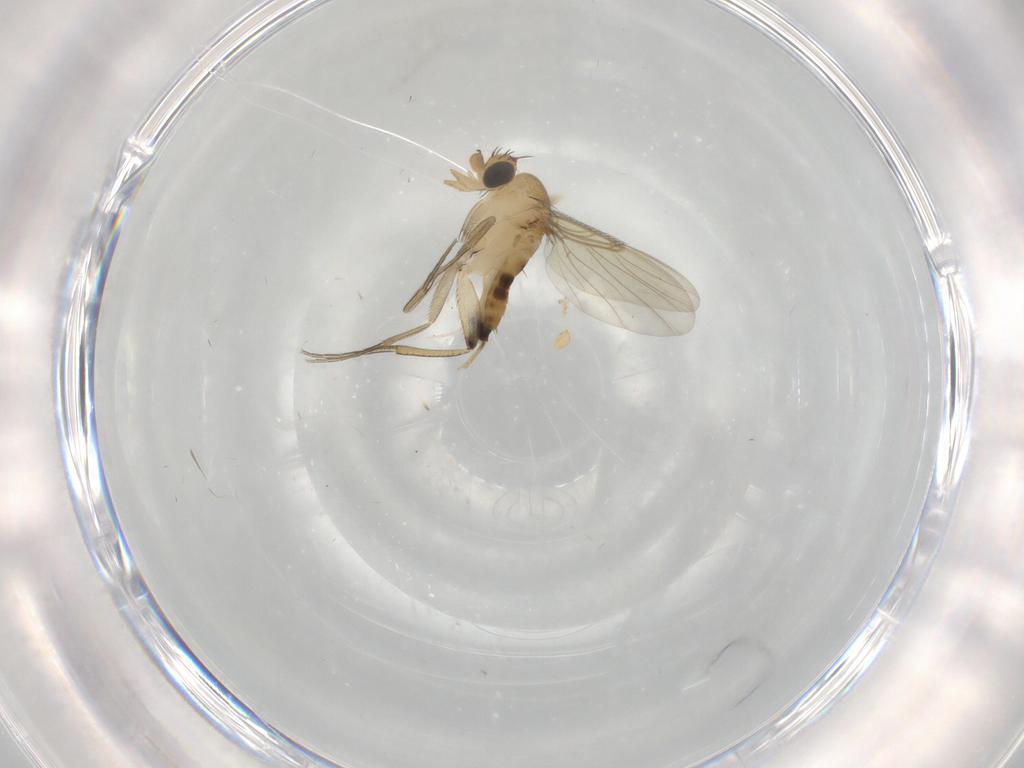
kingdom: Animalia
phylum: Arthropoda
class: Insecta
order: Diptera
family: Phoridae
